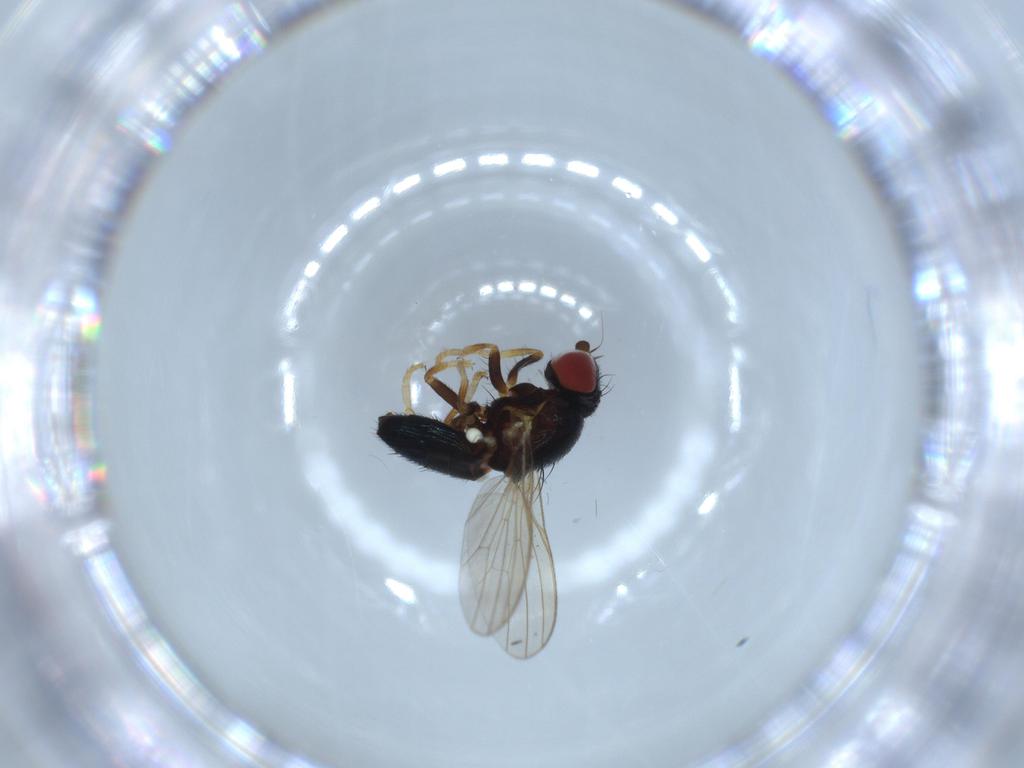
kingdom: Animalia
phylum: Arthropoda
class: Insecta
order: Diptera
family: Chamaemyiidae
